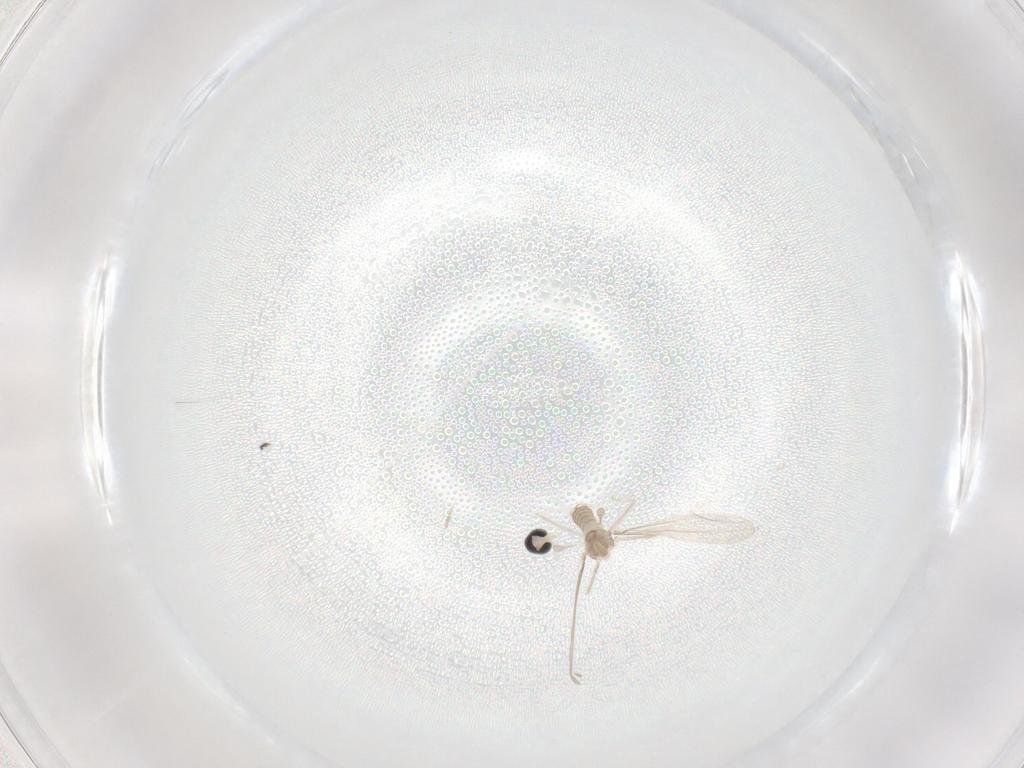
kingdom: Animalia
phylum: Arthropoda
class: Insecta
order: Diptera
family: Cecidomyiidae
